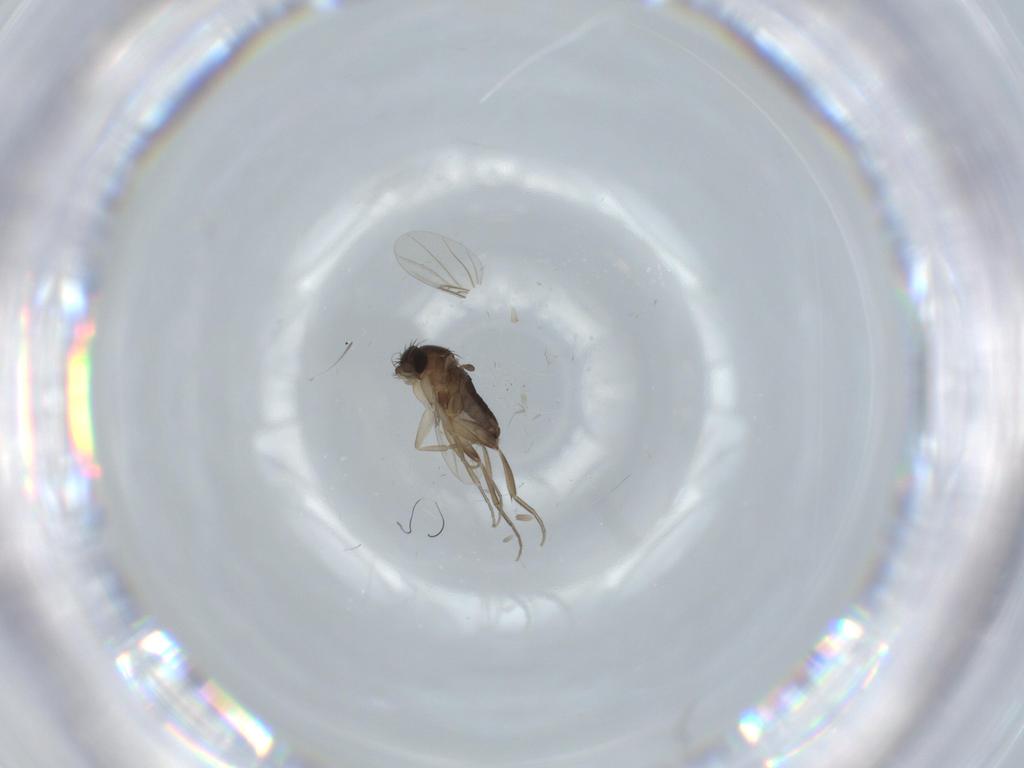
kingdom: Animalia
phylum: Arthropoda
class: Insecta
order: Diptera
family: Phoridae
